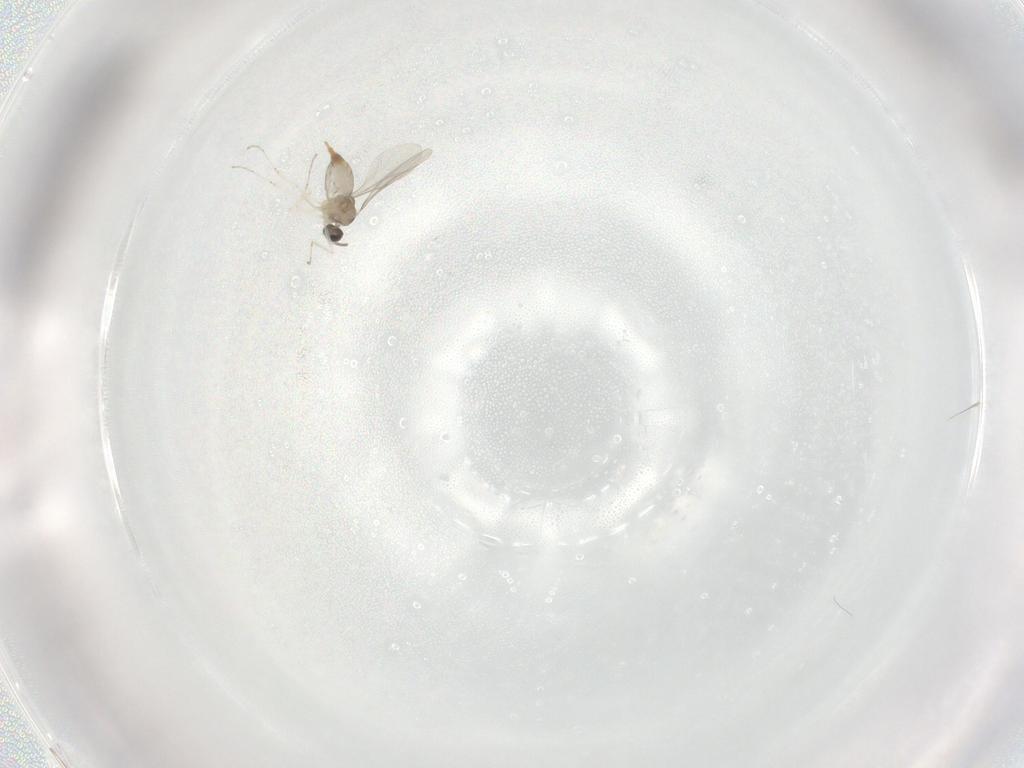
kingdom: Animalia
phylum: Arthropoda
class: Insecta
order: Diptera
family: Cecidomyiidae
